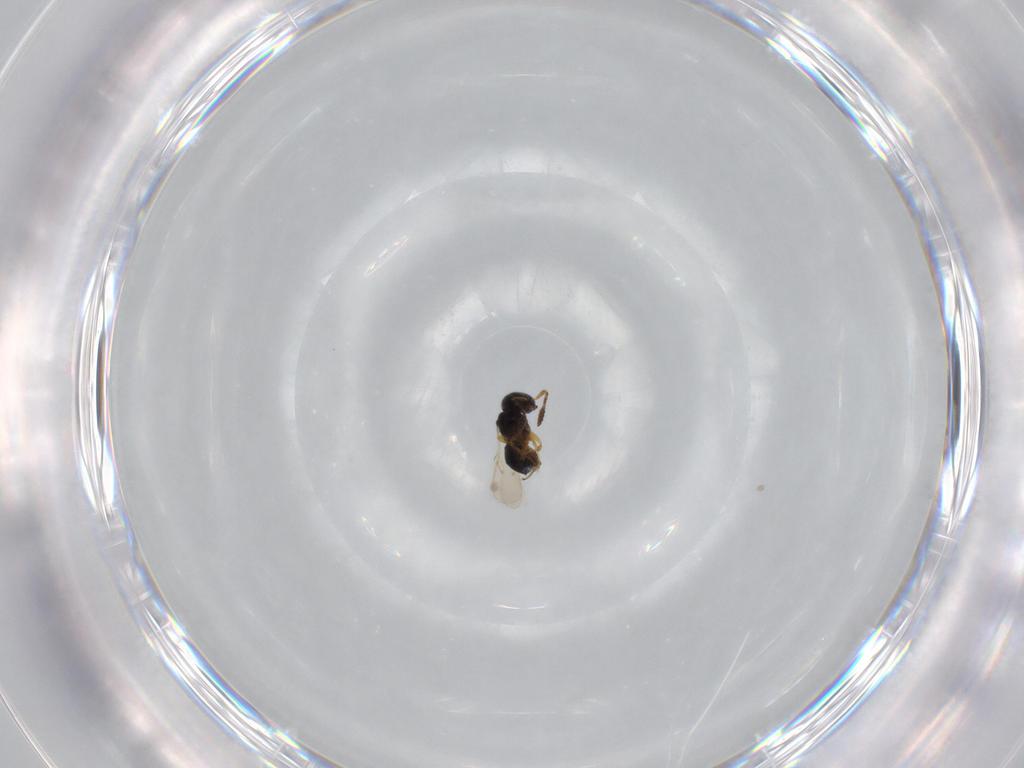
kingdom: Animalia
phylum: Arthropoda
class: Insecta
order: Hymenoptera
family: Scelionidae
